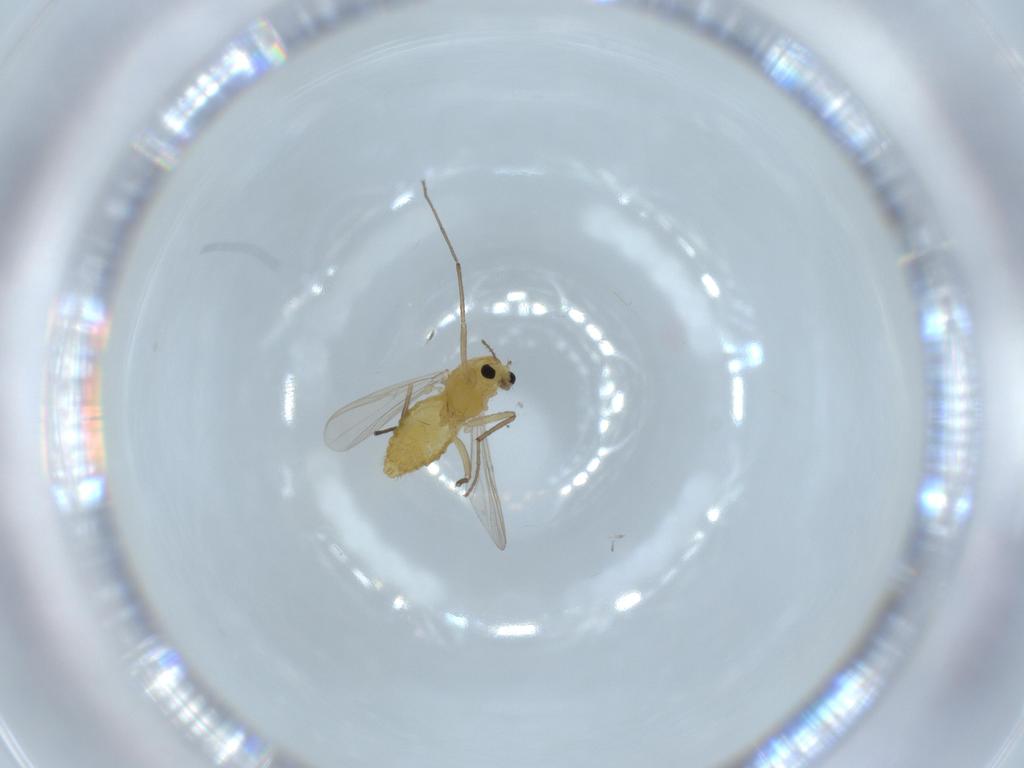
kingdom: Animalia
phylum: Arthropoda
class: Insecta
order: Diptera
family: Chironomidae
